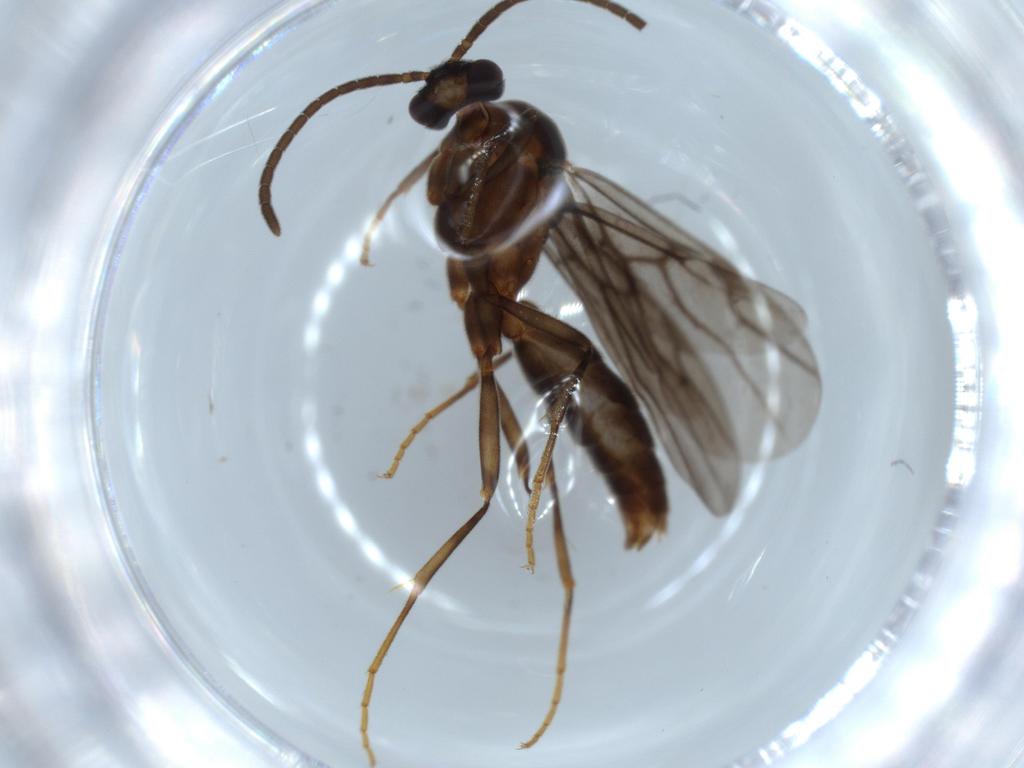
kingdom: Animalia
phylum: Arthropoda
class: Insecta
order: Hymenoptera
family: Formicidae
